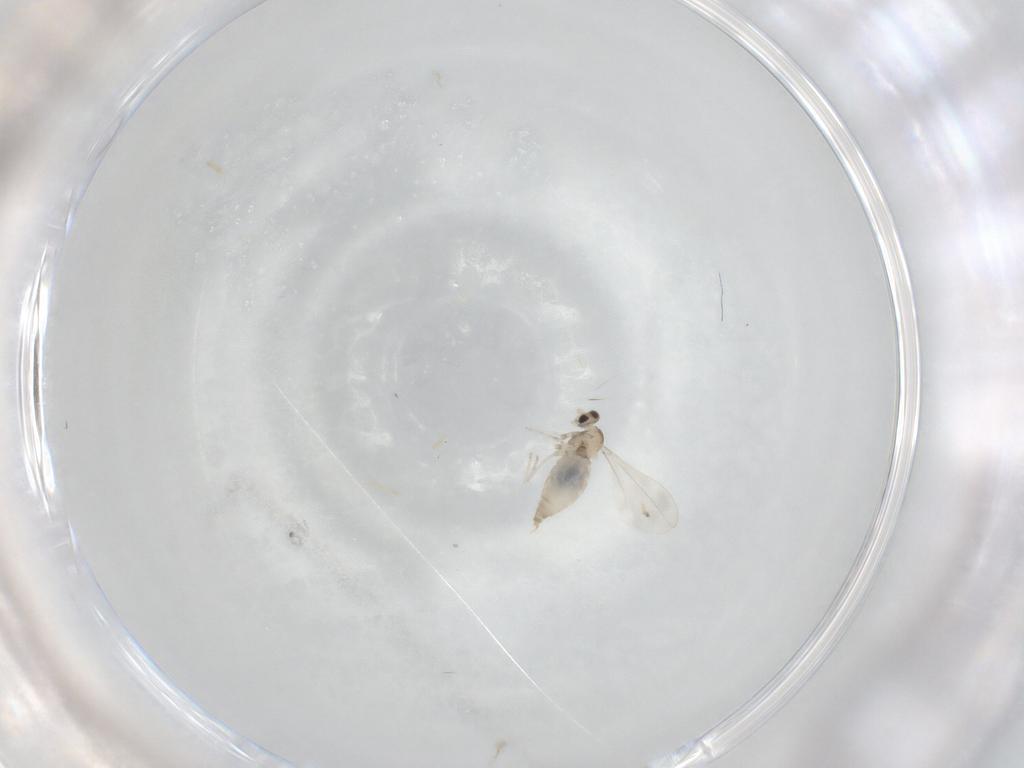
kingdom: Animalia
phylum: Arthropoda
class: Insecta
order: Diptera
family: Cecidomyiidae
